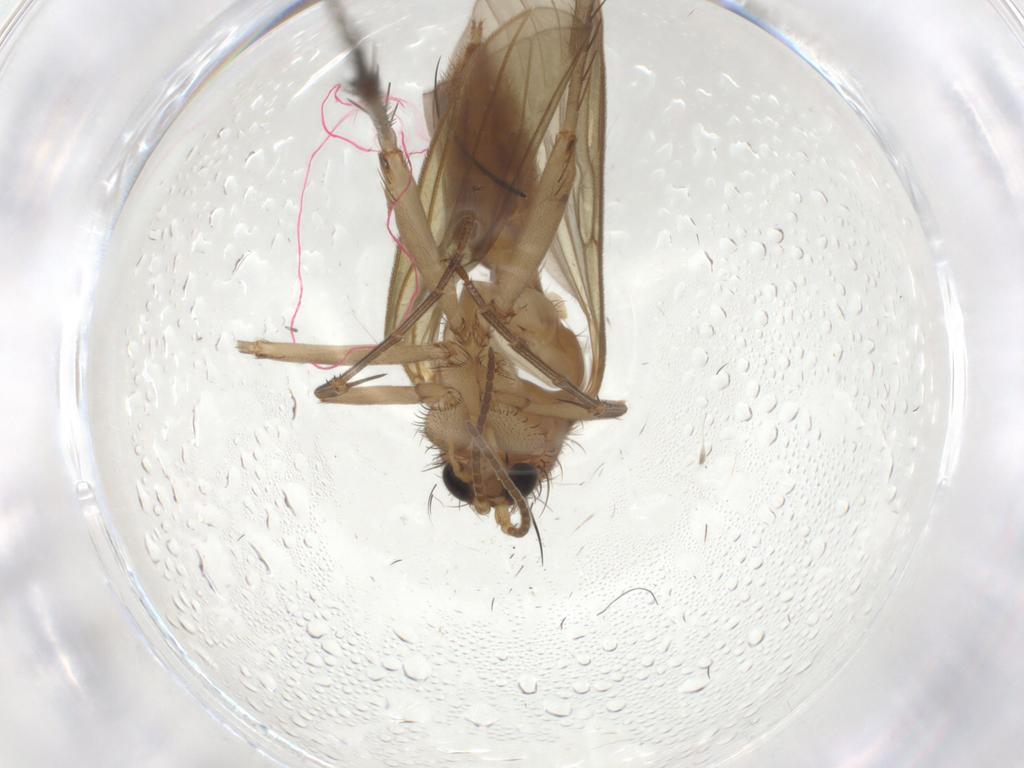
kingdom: Animalia
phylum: Arthropoda
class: Insecta
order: Diptera
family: Mycetophilidae
